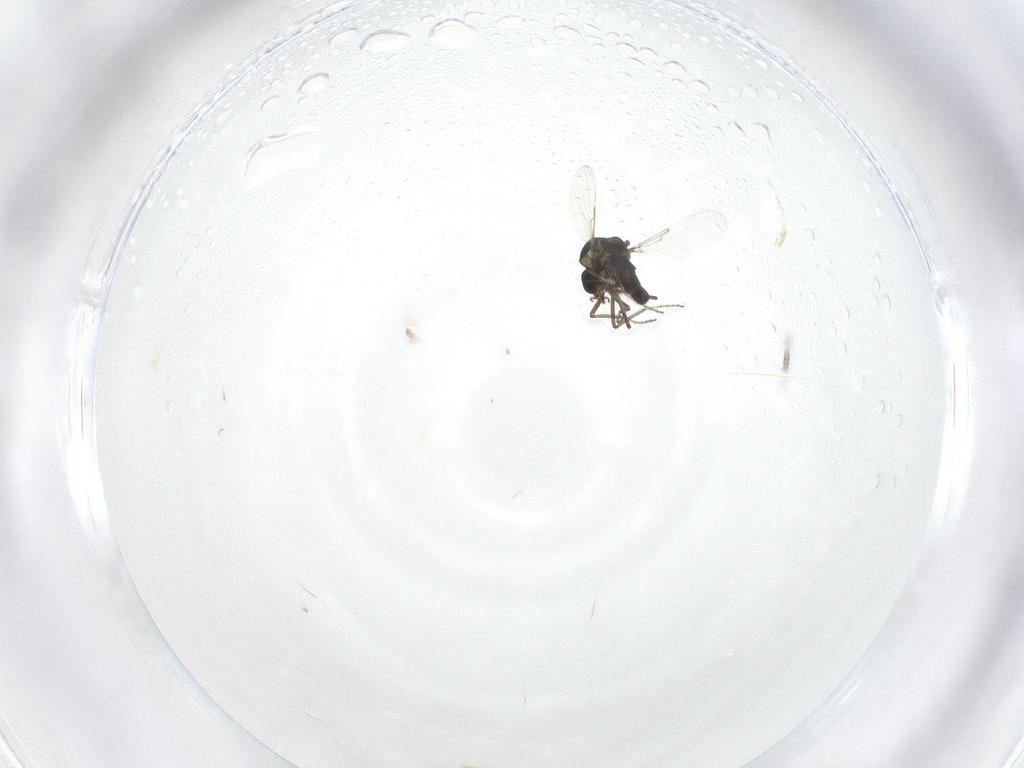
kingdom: Animalia
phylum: Arthropoda
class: Insecta
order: Diptera
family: Ceratopogonidae
